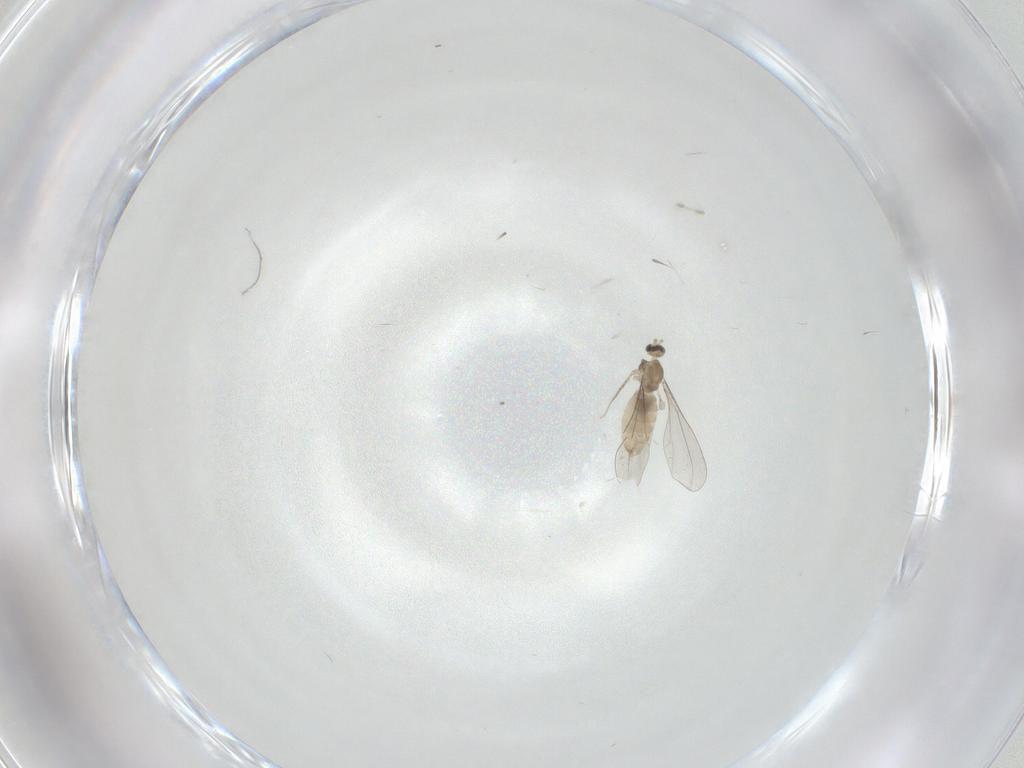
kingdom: Animalia
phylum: Arthropoda
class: Insecta
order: Diptera
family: Cecidomyiidae
